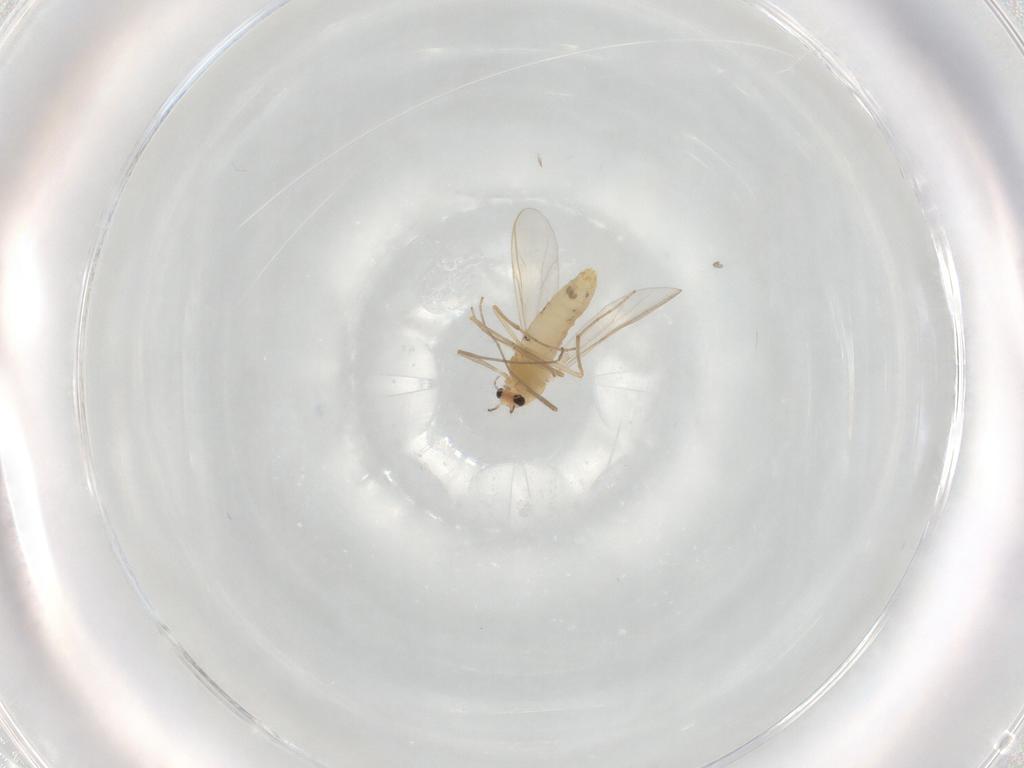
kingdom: Animalia
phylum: Arthropoda
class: Insecta
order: Diptera
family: Chironomidae
